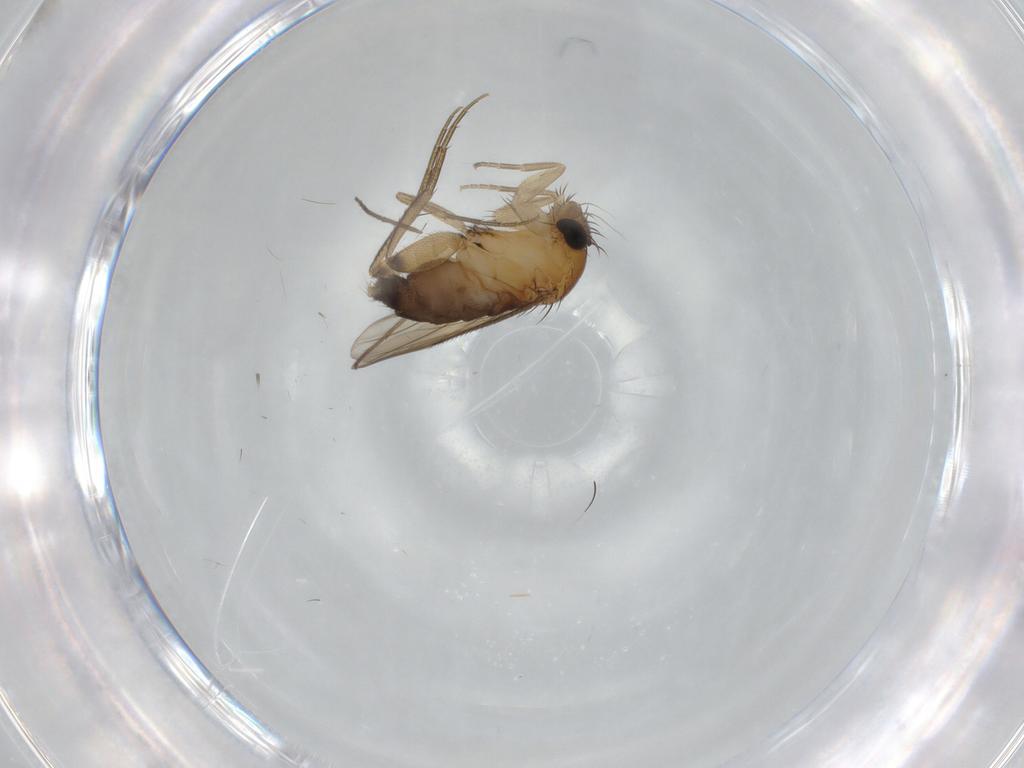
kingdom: Animalia
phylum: Arthropoda
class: Insecta
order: Diptera
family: Phoridae
